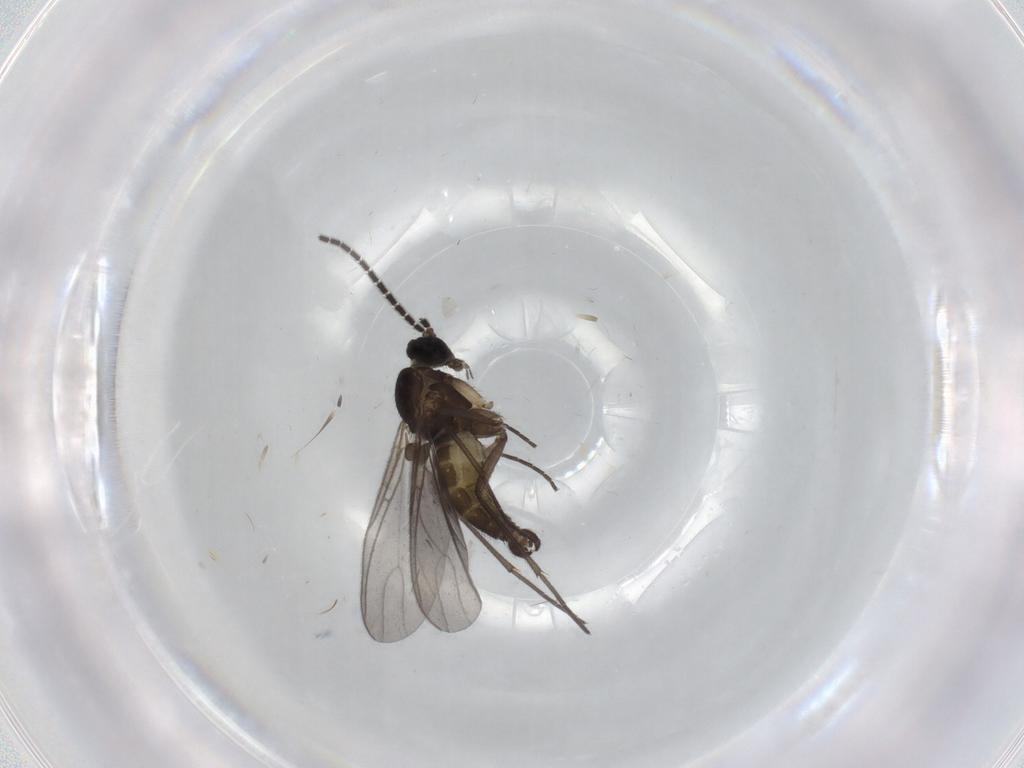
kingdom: Animalia
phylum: Arthropoda
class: Insecta
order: Diptera
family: Sciaridae
